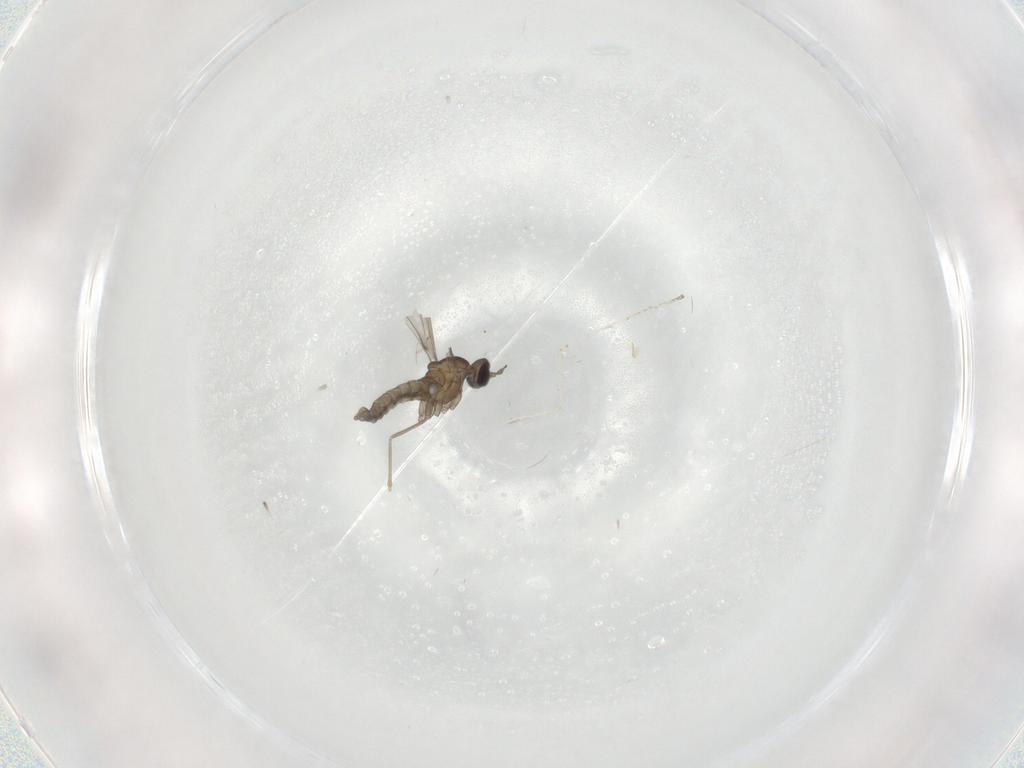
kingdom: Animalia
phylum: Arthropoda
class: Insecta
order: Diptera
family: Cecidomyiidae
